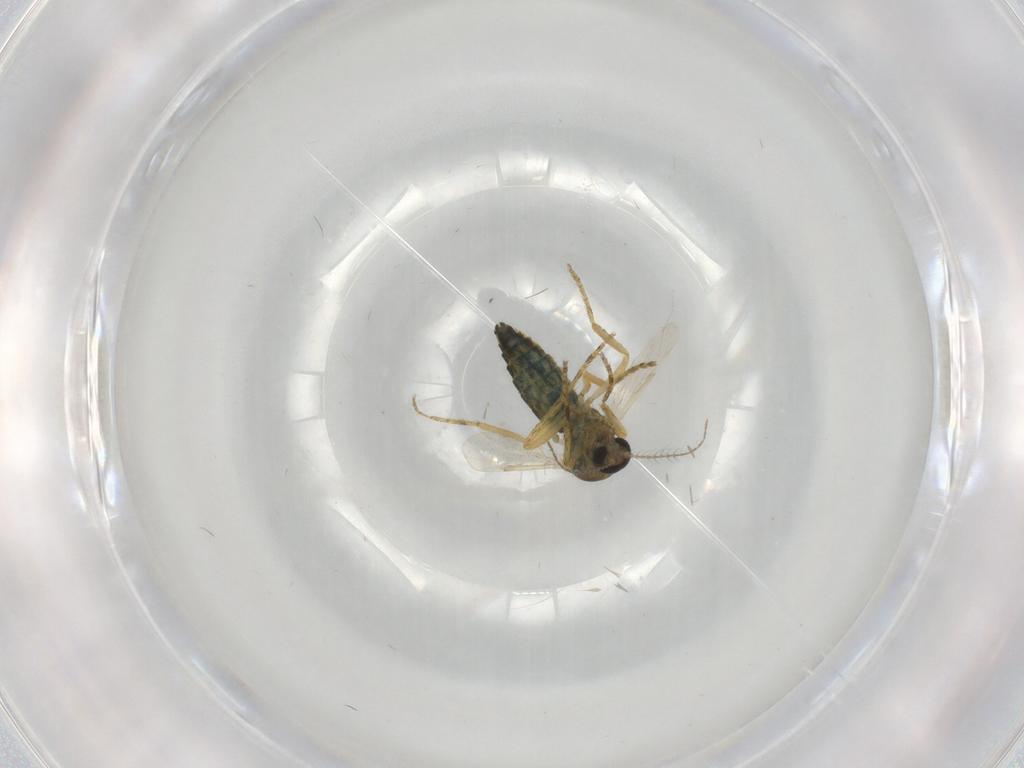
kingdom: Animalia
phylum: Arthropoda
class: Insecta
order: Diptera
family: Ceratopogonidae
